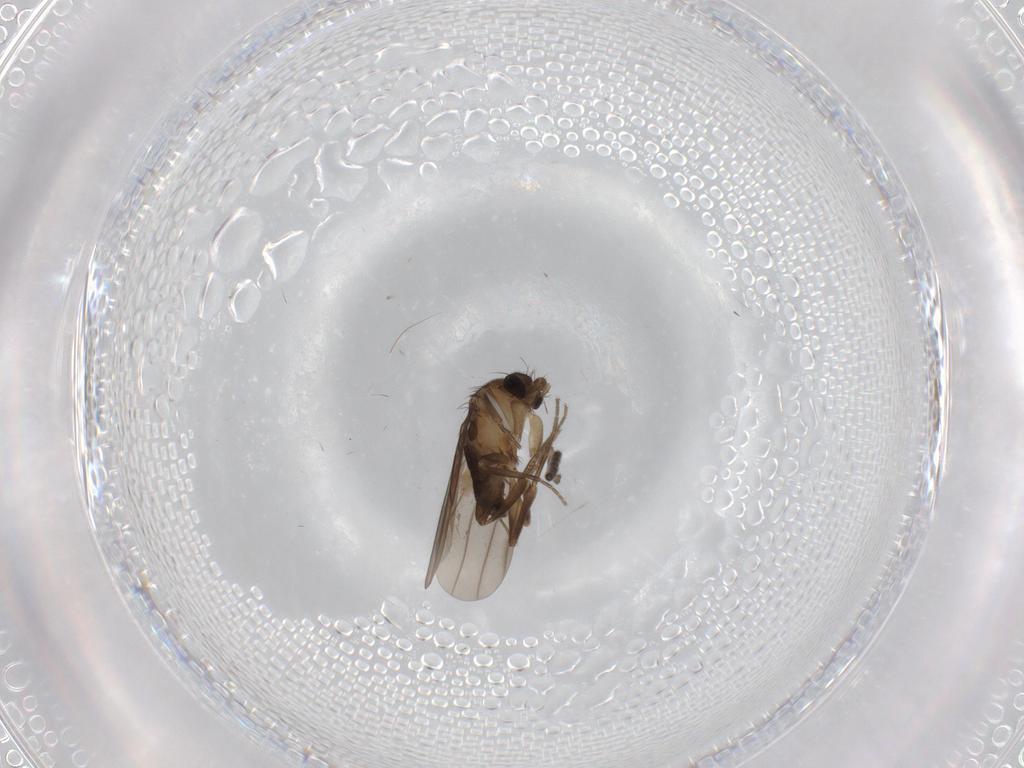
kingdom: Animalia
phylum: Arthropoda
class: Insecta
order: Diptera
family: Sciaridae
